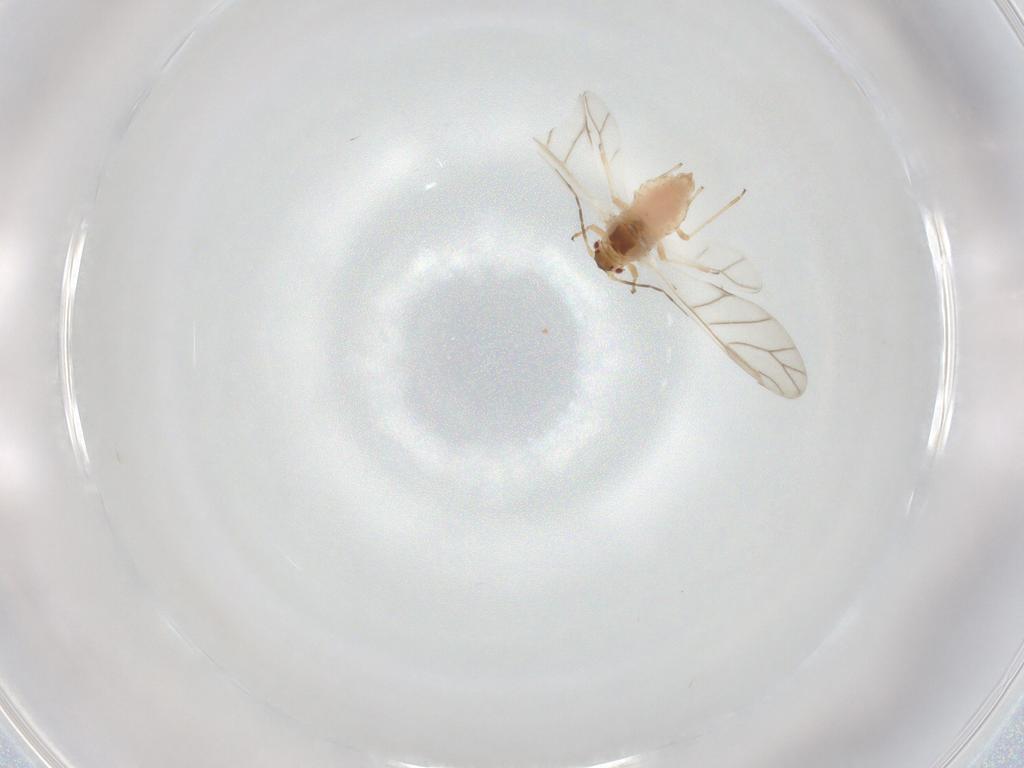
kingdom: Animalia
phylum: Arthropoda
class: Insecta
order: Hemiptera
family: Aphididae
